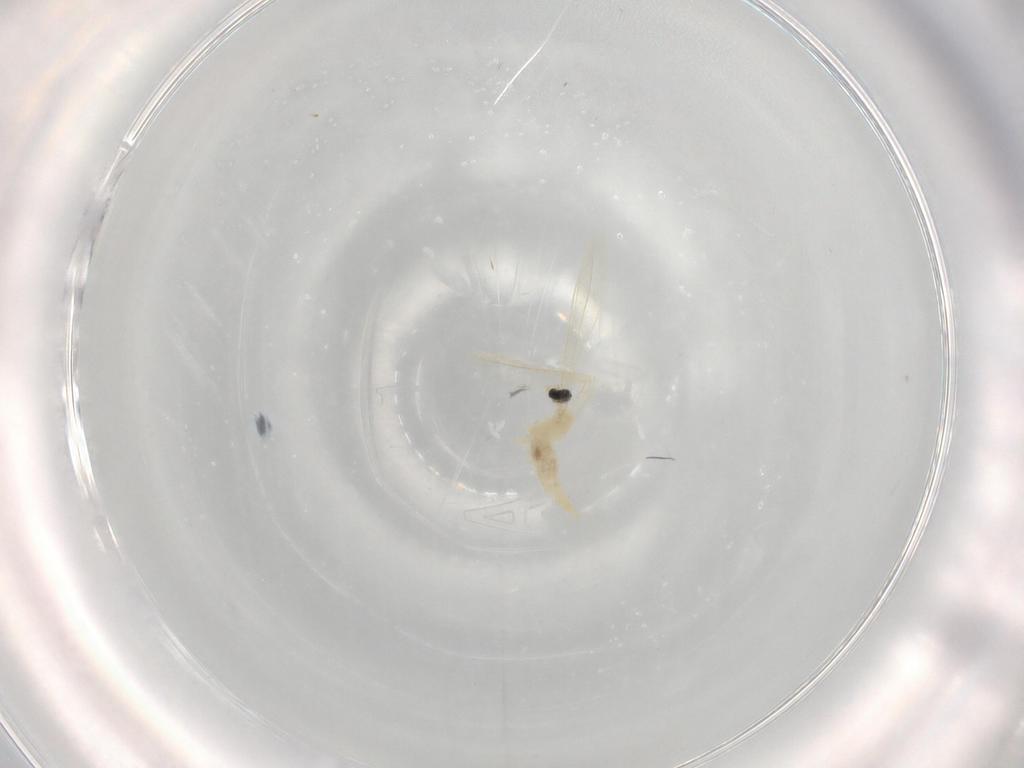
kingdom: Animalia
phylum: Arthropoda
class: Insecta
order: Diptera
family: Cecidomyiidae
